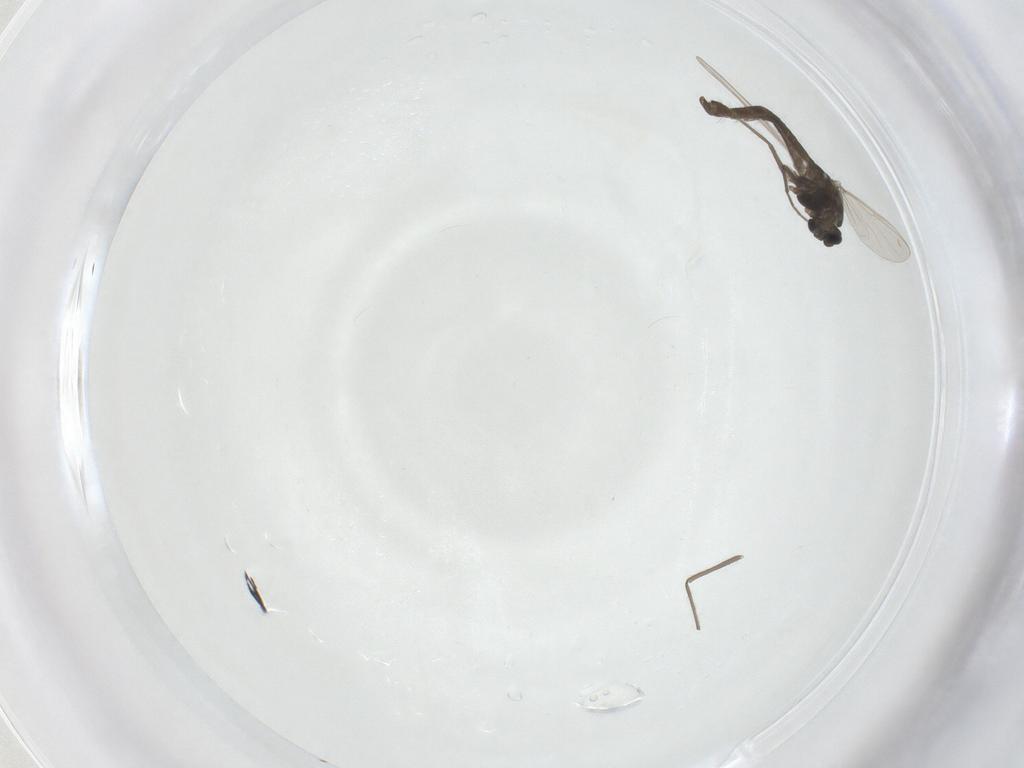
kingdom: Animalia
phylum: Arthropoda
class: Insecta
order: Diptera
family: Chironomidae
